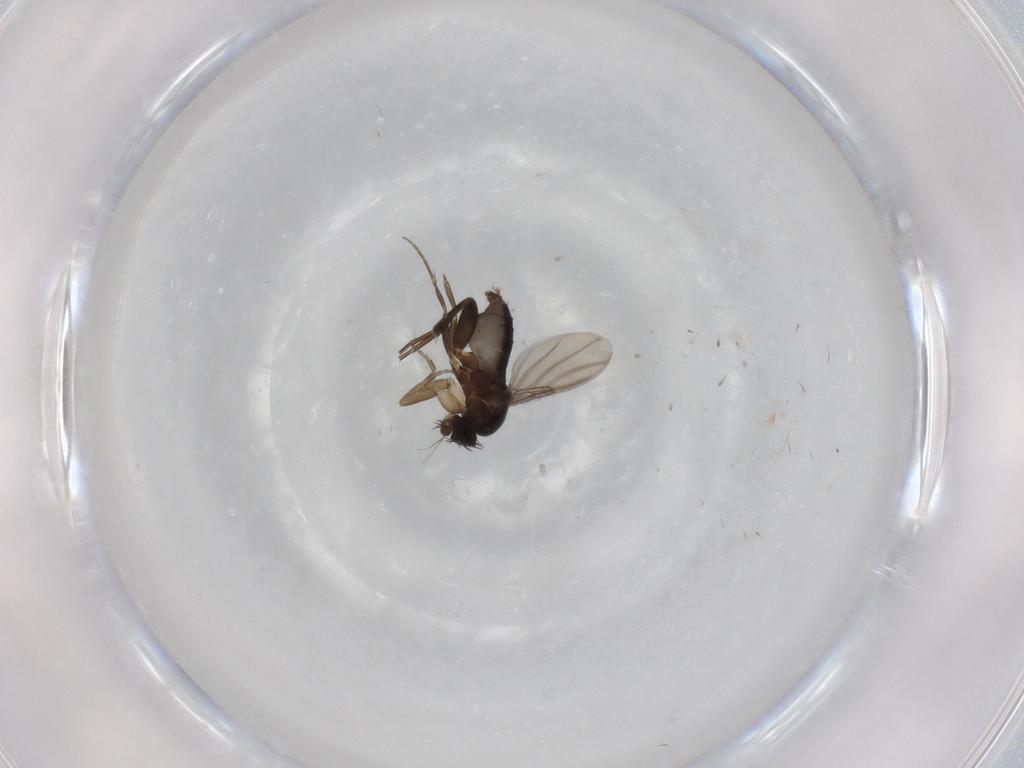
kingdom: Animalia
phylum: Arthropoda
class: Insecta
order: Diptera
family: Phoridae
